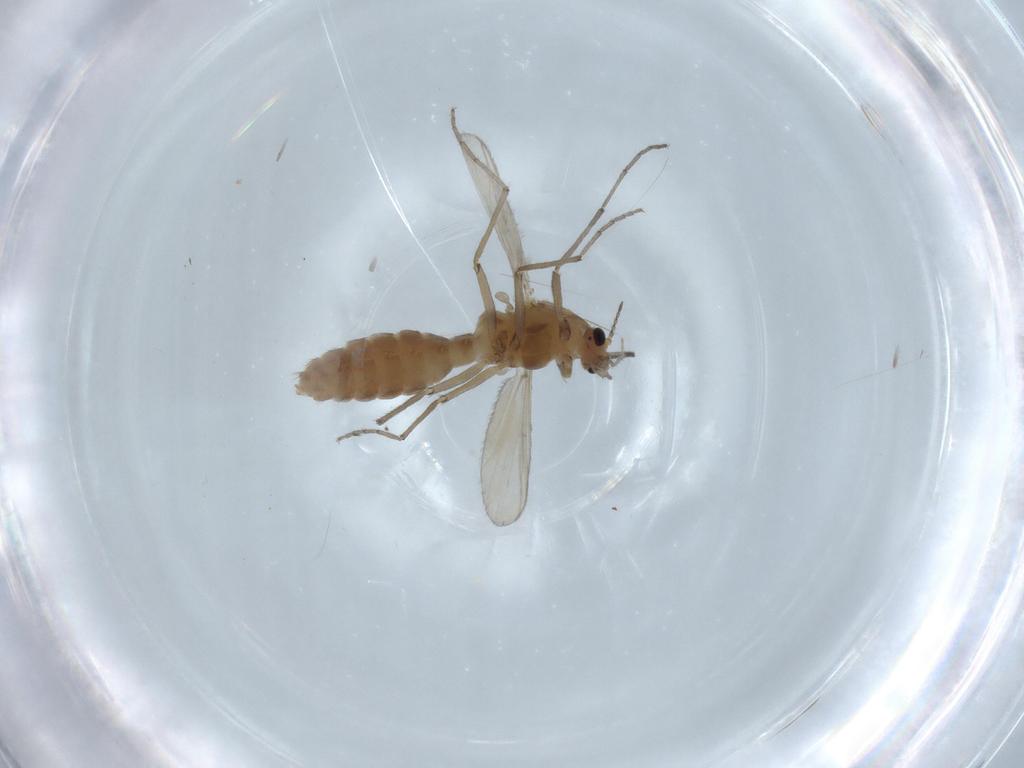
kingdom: Animalia
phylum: Arthropoda
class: Insecta
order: Diptera
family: Chironomidae
